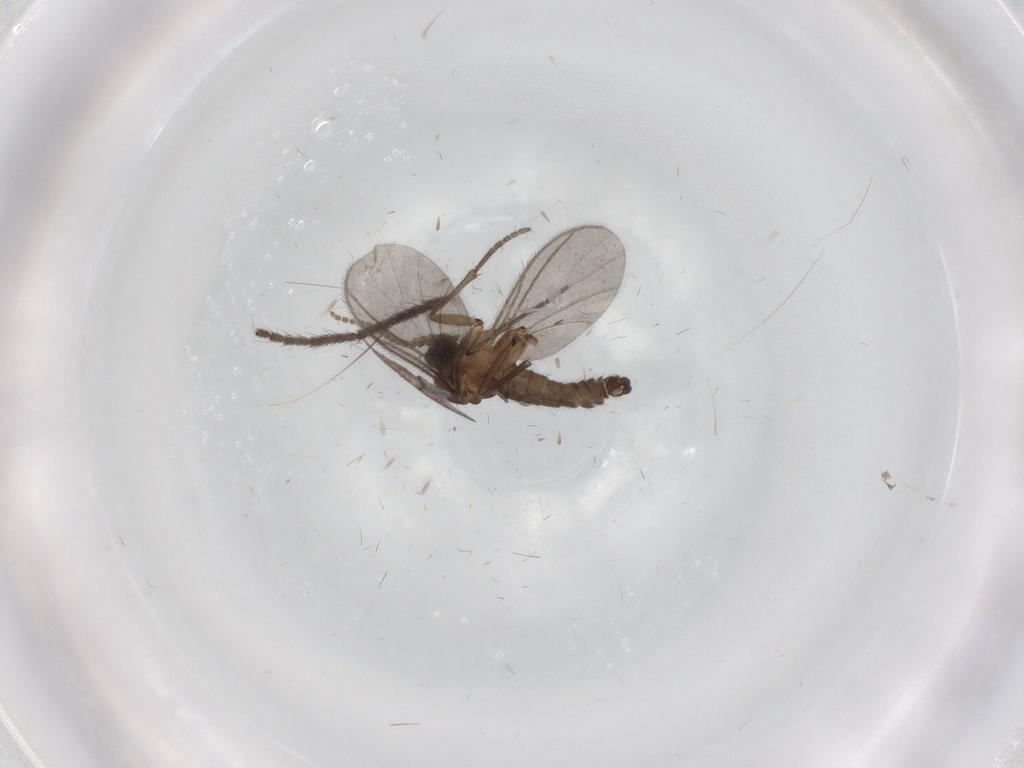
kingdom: Animalia
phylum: Arthropoda
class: Insecta
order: Diptera
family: Sciaridae
